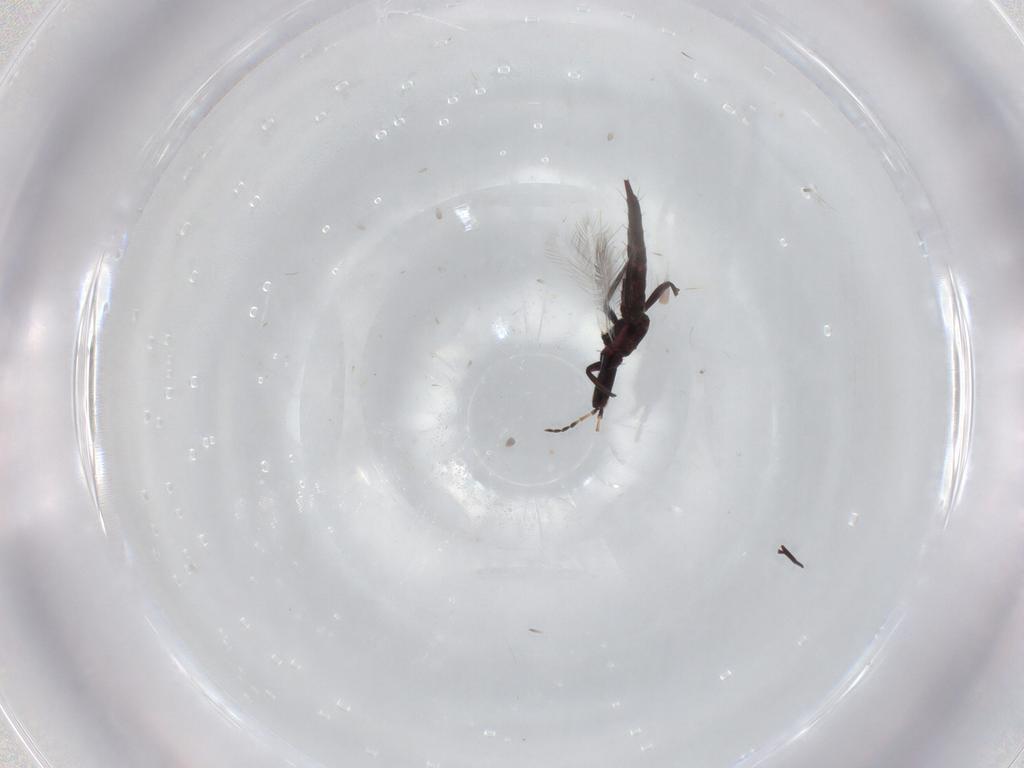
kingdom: Animalia
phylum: Arthropoda
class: Insecta
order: Thysanoptera
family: Phlaeothripidae
